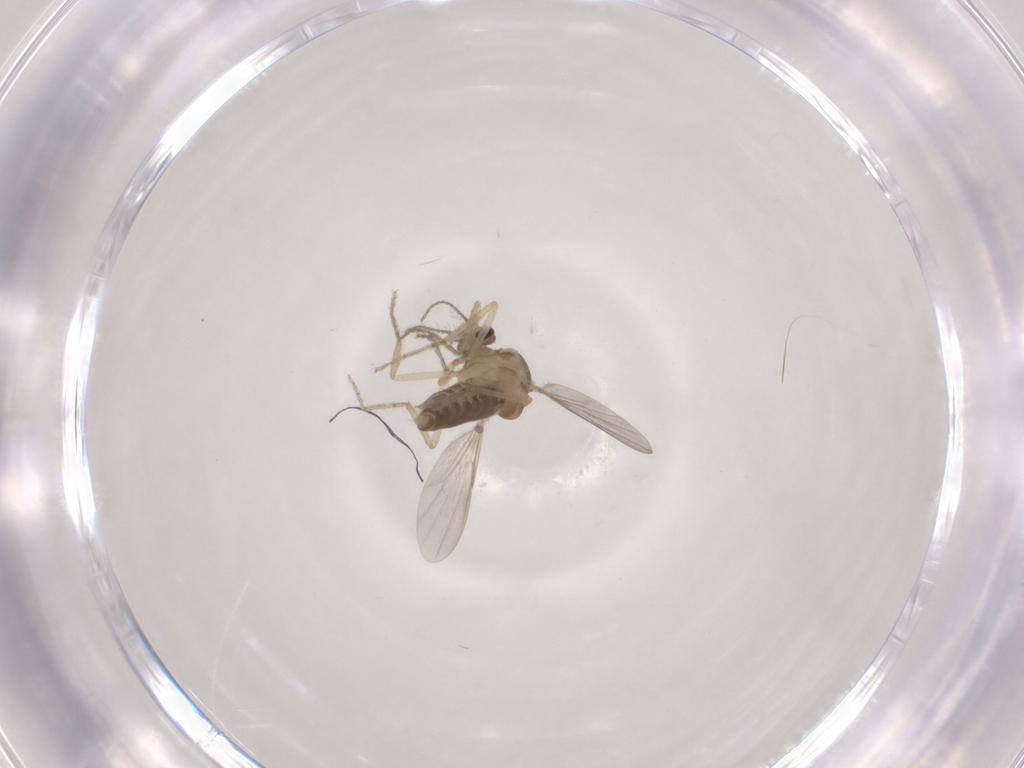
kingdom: Animalia
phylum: Arthropoda
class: Insecta
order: Diptera
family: Ceratopogonidae
